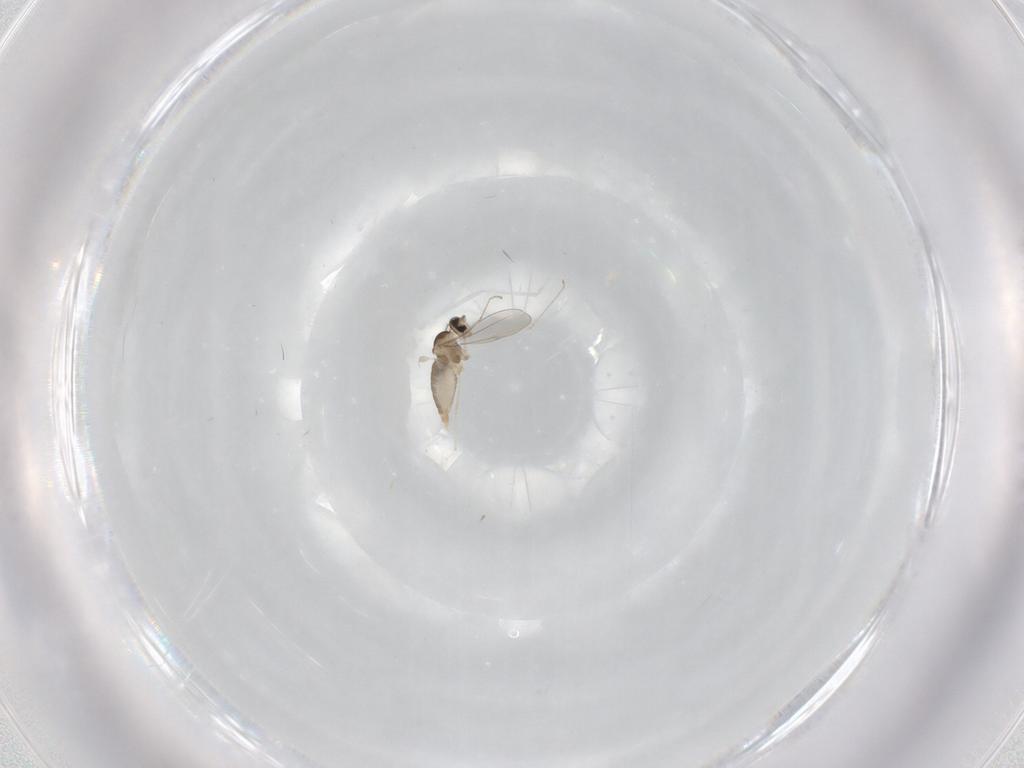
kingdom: Animalia
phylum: Arthropoda
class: Insecta
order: Diptera
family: Cecidomyiidae
